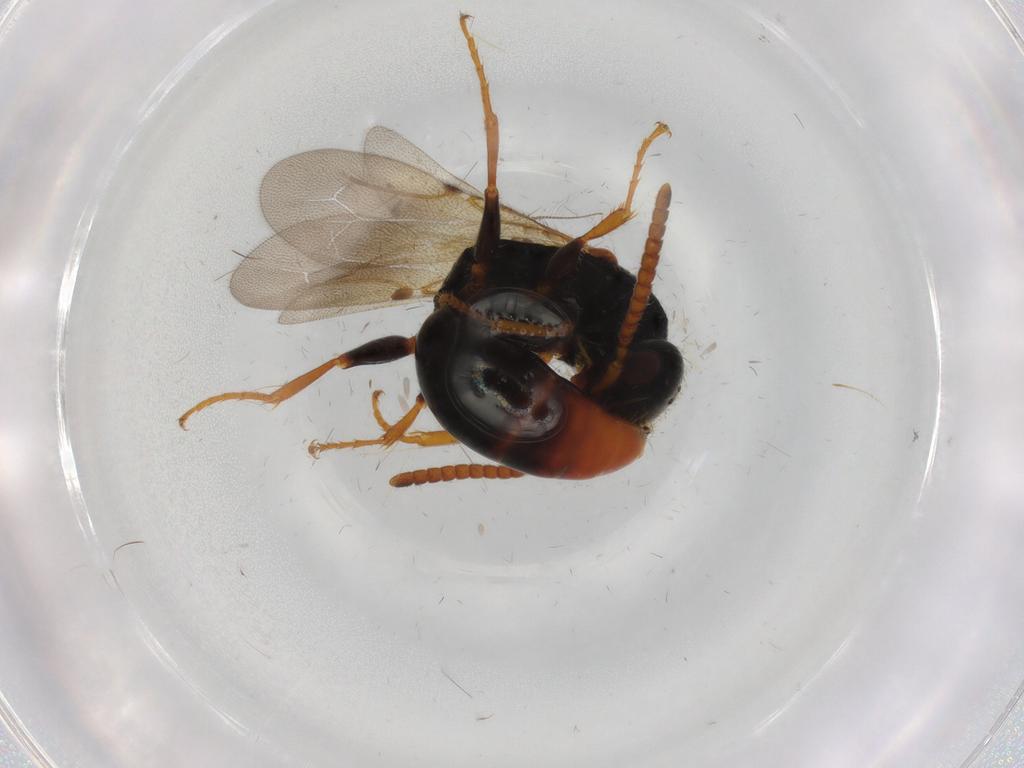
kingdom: Animalia
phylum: Arthropoda
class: Insecta
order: Hymenoptera
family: Bethylidae
